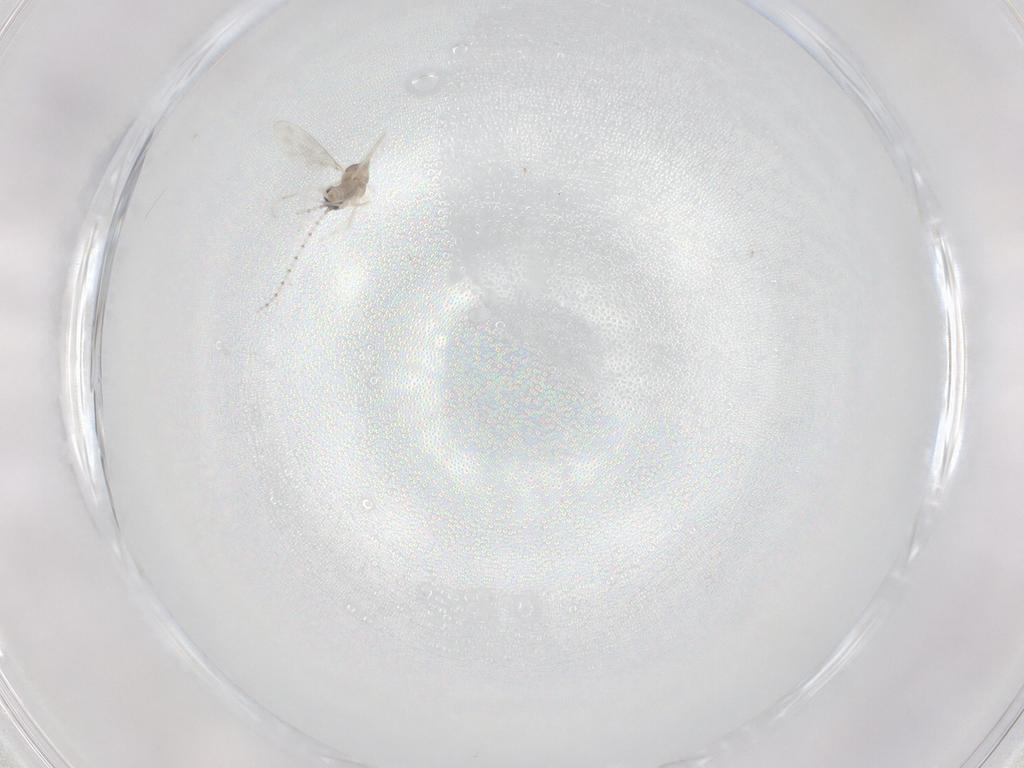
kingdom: Animalia
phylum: Arthropoda
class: Insecta
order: Diptera
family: Cecidomyiidae
